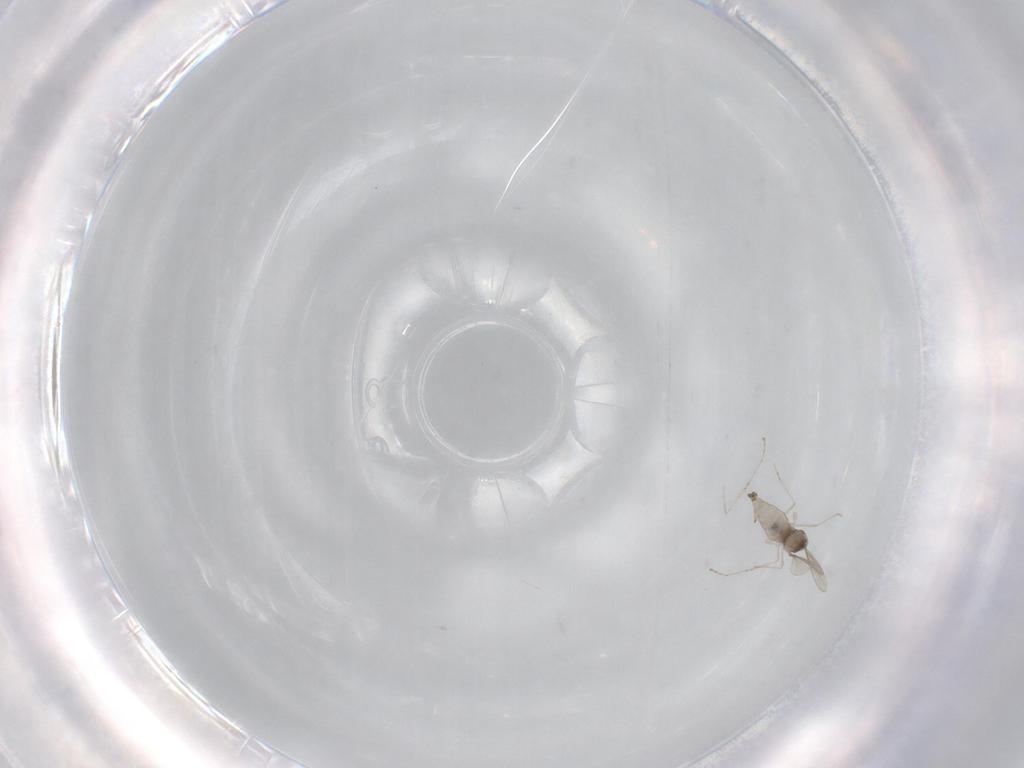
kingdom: Animalia
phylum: Arthropoda
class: Insecta
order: Diptera
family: Cecidomyiidae
